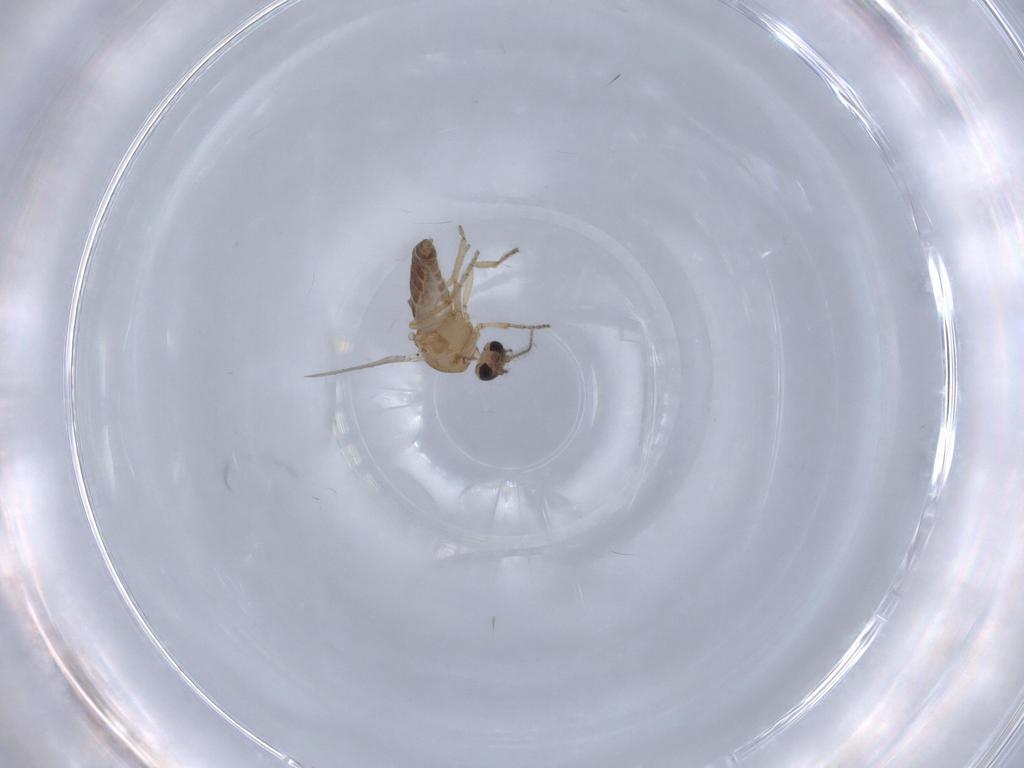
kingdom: Animalia
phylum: Arthropoda
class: Insecta
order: Diptera
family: Ceratopogonidae
